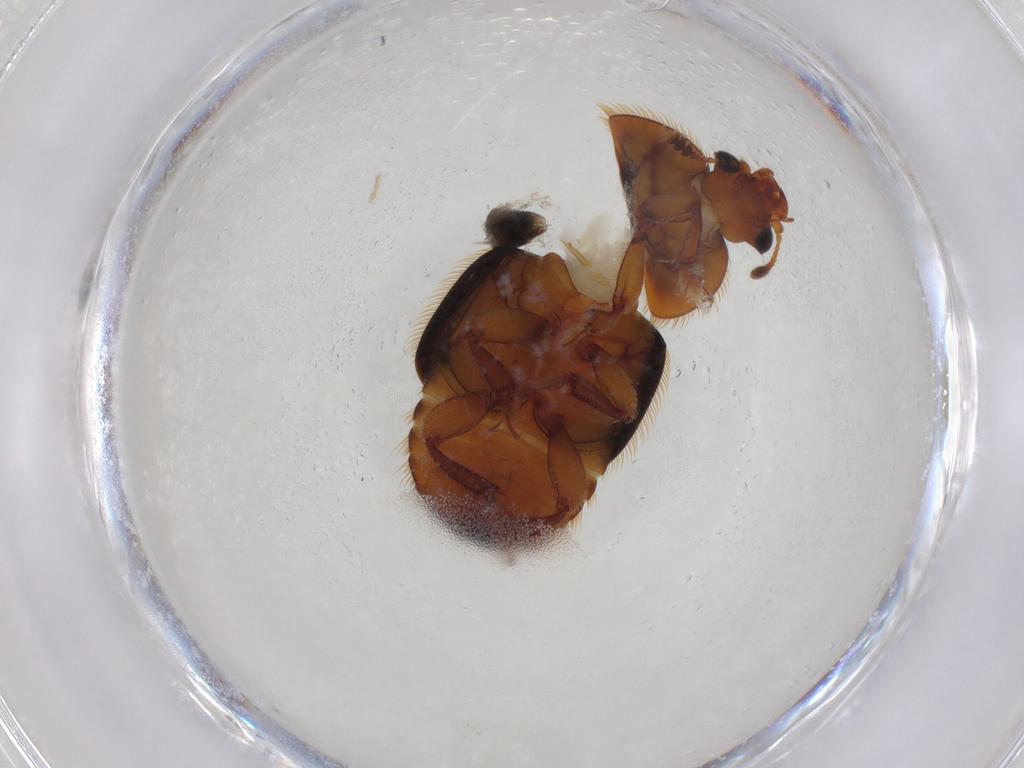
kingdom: Animalia
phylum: Arthropoda
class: Insecta
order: Coleoptera
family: Nitidulidae
